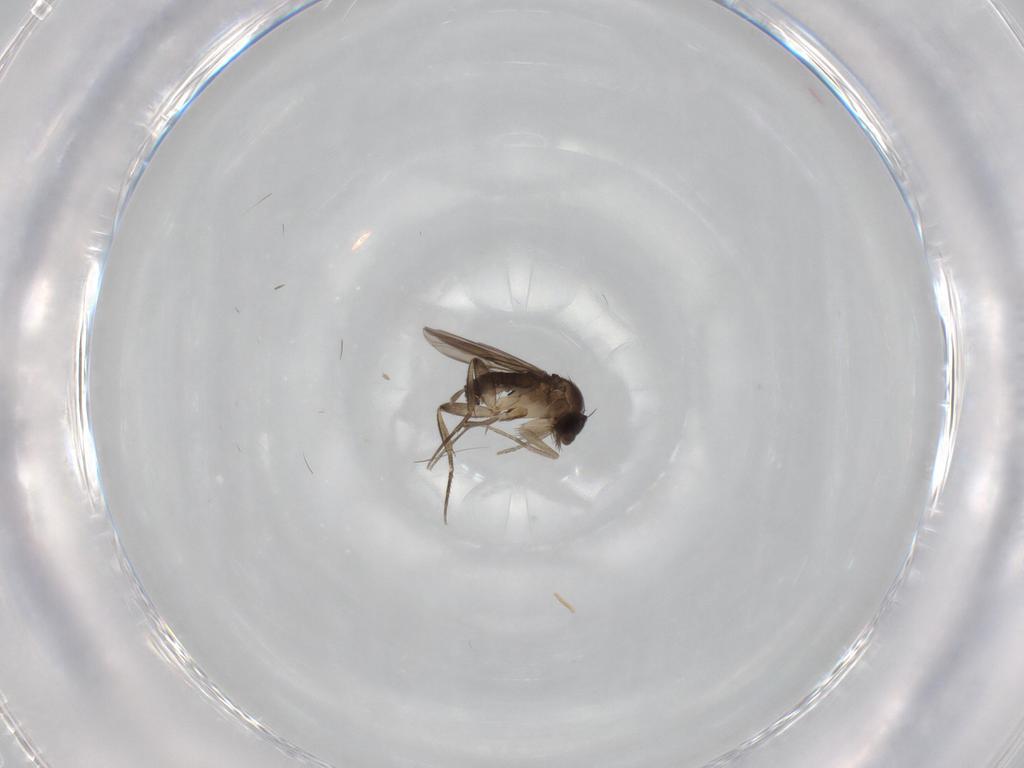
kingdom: Animalia
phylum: Arthropoda
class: Insecta
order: Diptera
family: Phoridae
